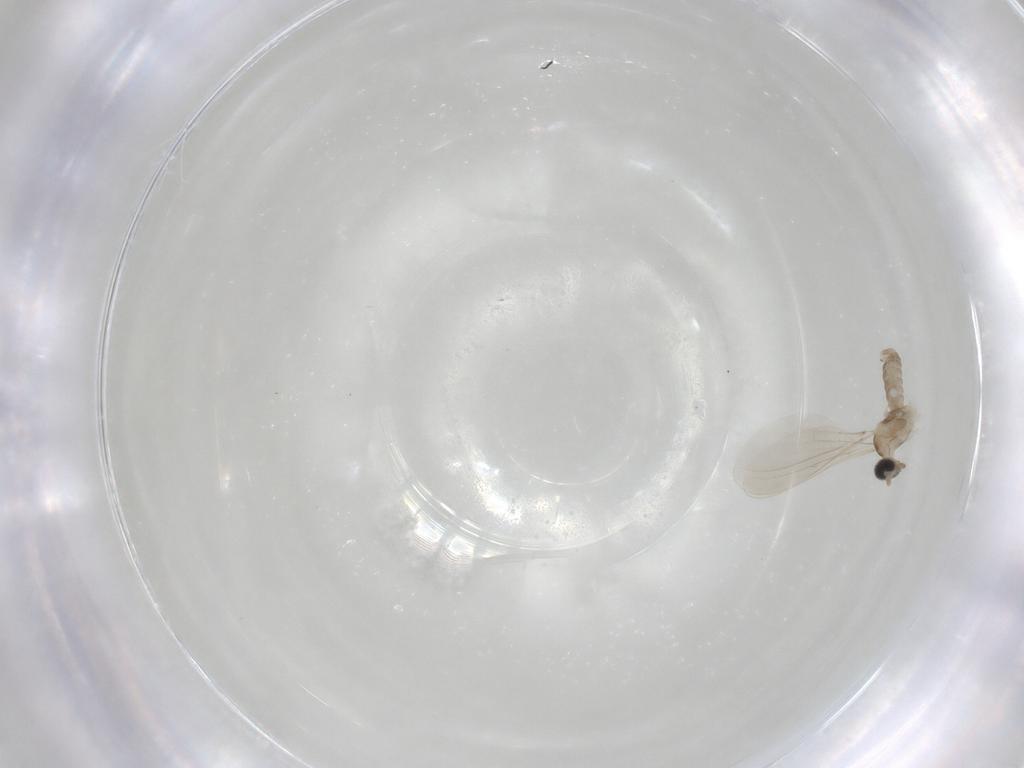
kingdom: Animalia
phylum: Arthropoda
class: Insecta
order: Diptera
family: Cecidomyiidae
